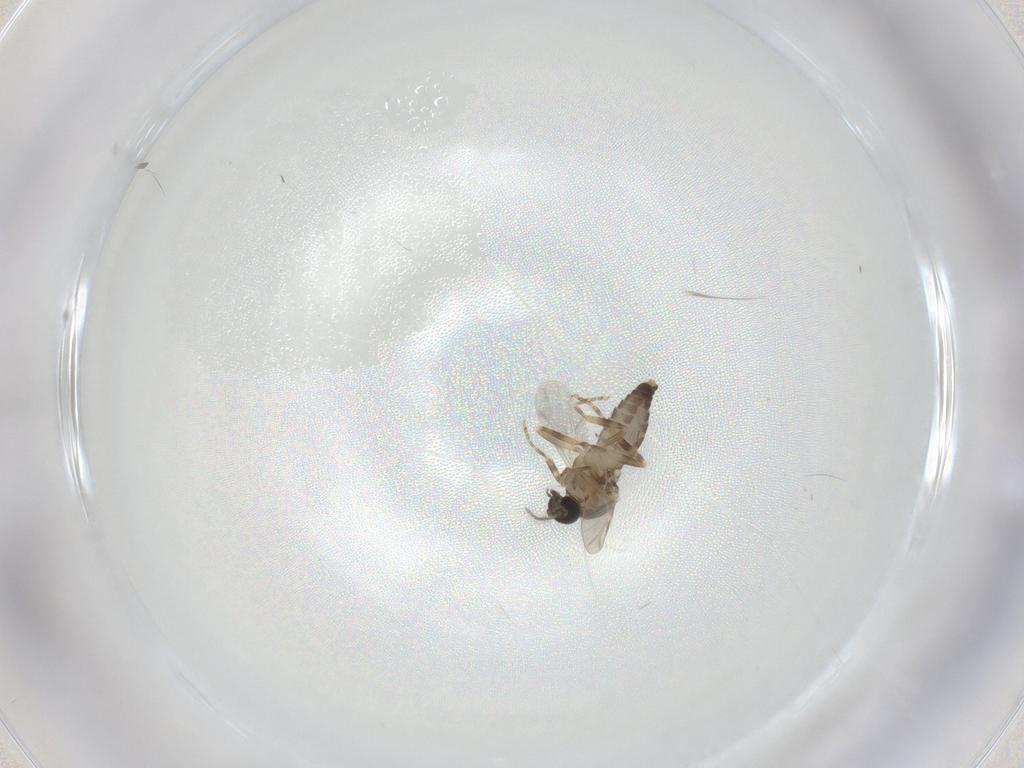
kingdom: Animalia
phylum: Arthropoda
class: Insecta
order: Diptera
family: Ceratopogonidae
